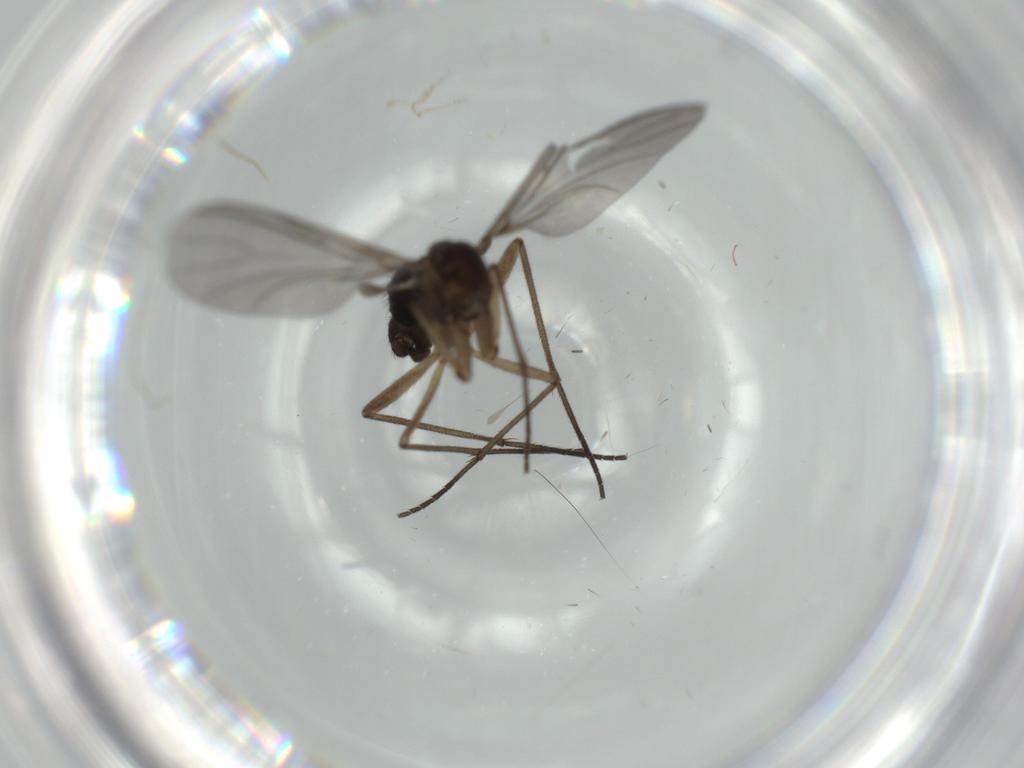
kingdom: Animalia
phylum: Arthropoda
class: Insecta
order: Diptera
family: Sciaridae
